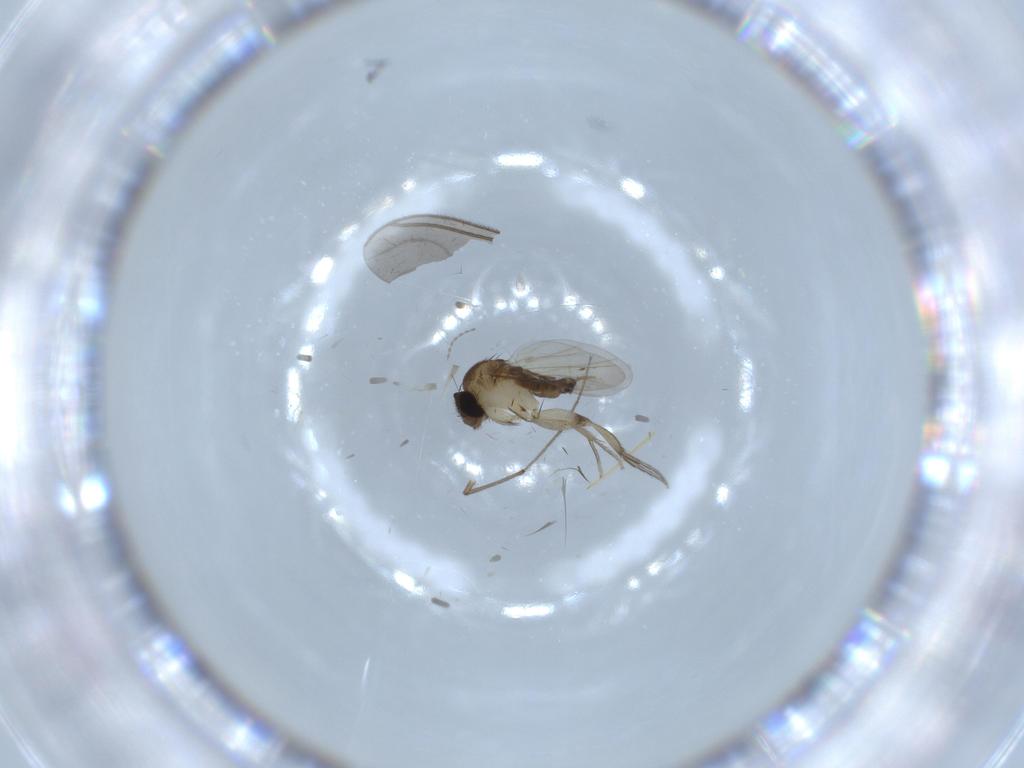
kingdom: Animalia
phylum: Arthropoda
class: Insecta
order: Diptera
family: Phoridae
